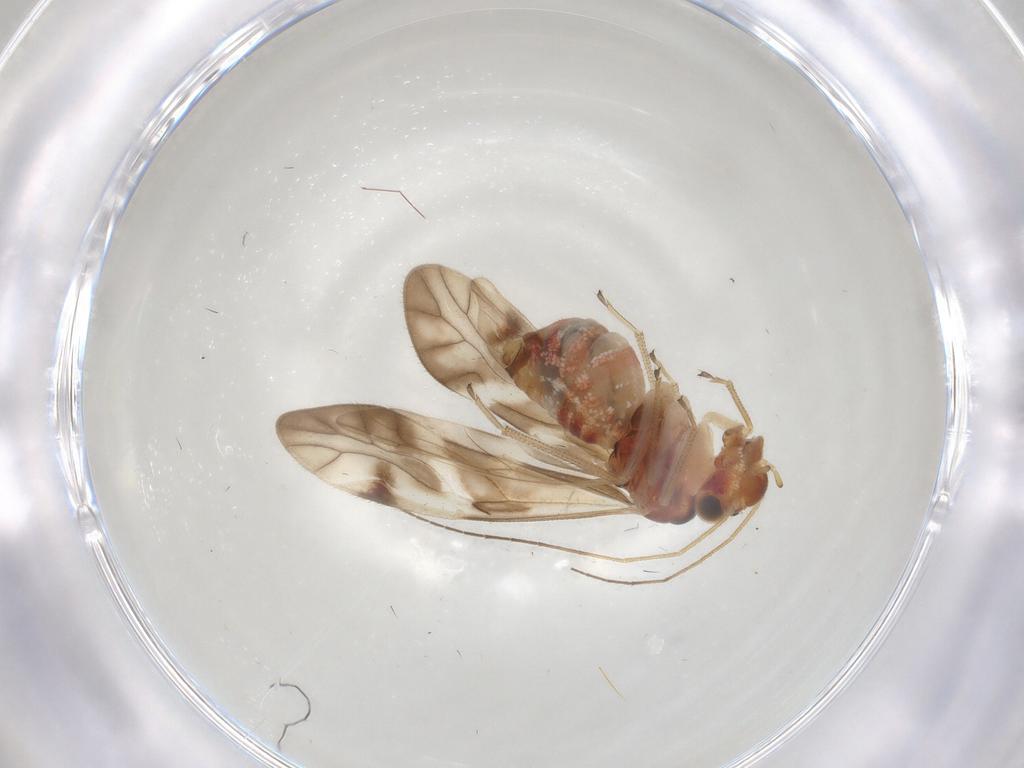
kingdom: Animalia
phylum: Arthropoda
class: Insecta
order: Psocodea
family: Caeciliusidae
